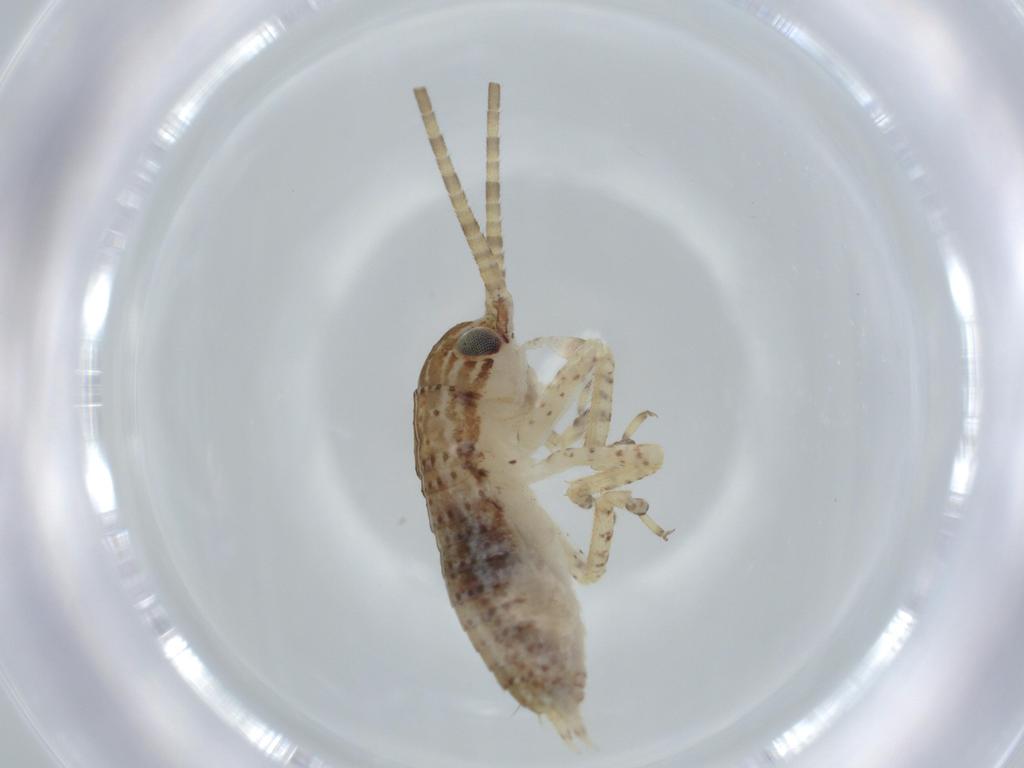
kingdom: Animalia
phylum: Arthropoda
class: Insecta
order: Orthoptera
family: Gryllidae
